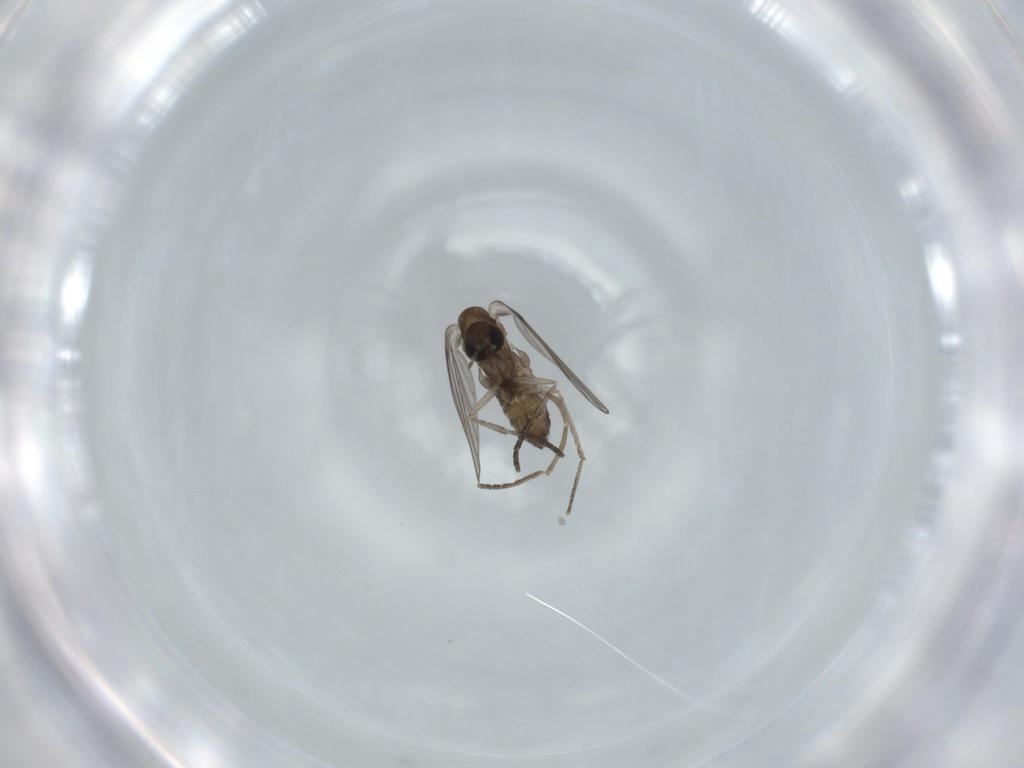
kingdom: Animalia
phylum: Arthropoda
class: Insecta
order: Diptera
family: Psychodidae
